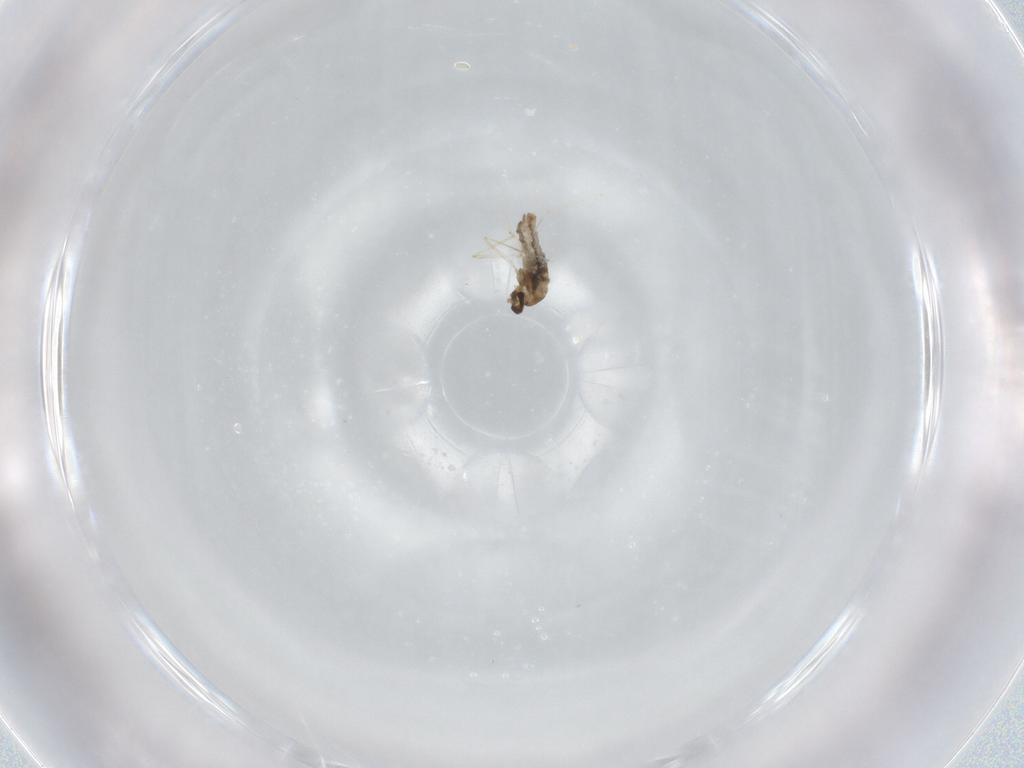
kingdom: Animalia
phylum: Arthropoda
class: Insecta
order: Diptera
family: Cecidomyiidae
